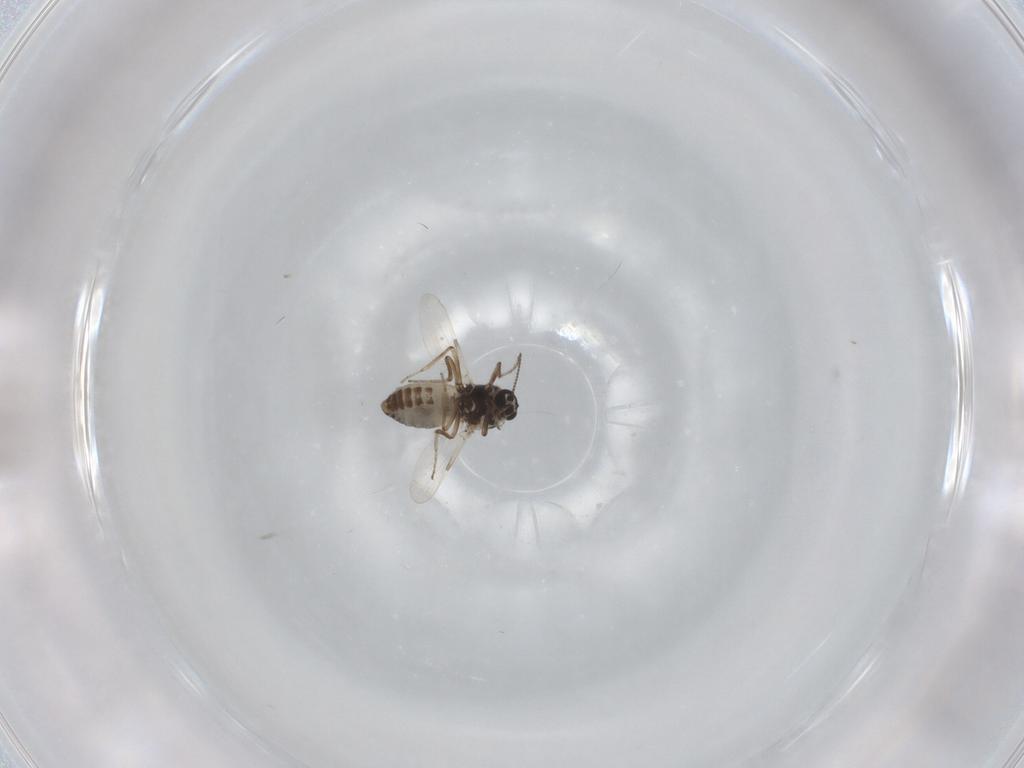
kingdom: Animalia
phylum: Arthropoda
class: Insecta
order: Diptera
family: Ceratopogonidae
